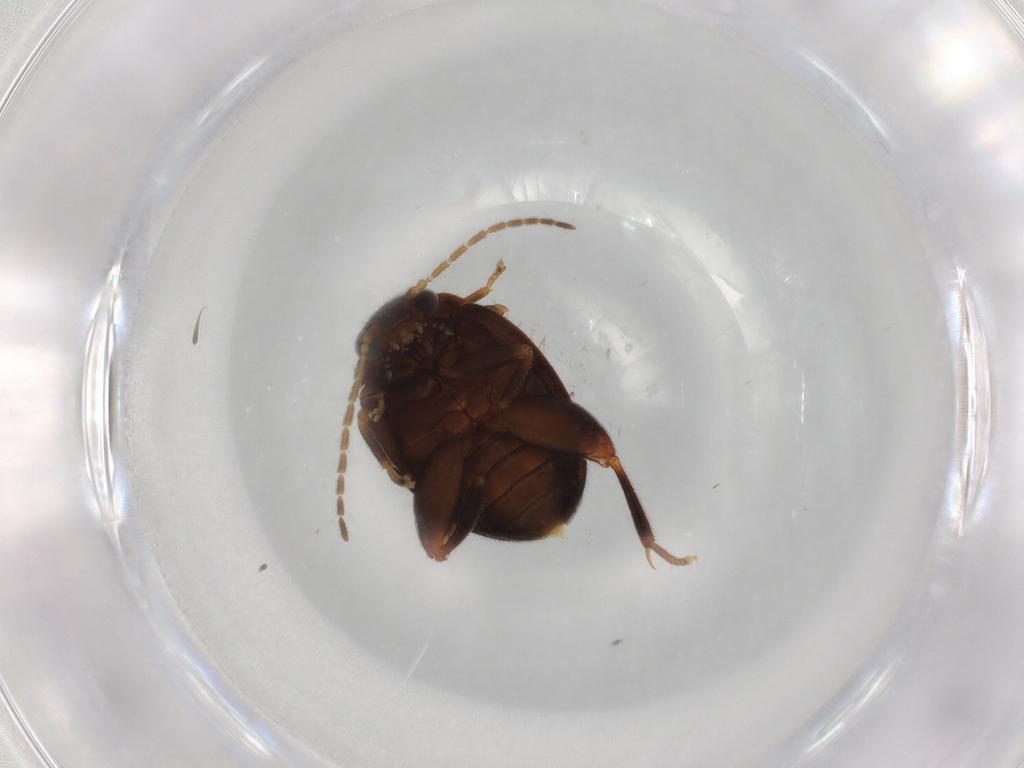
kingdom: Animalia
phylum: Arthropoda
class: Insecta
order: Coleoptera
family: Scirtidae
